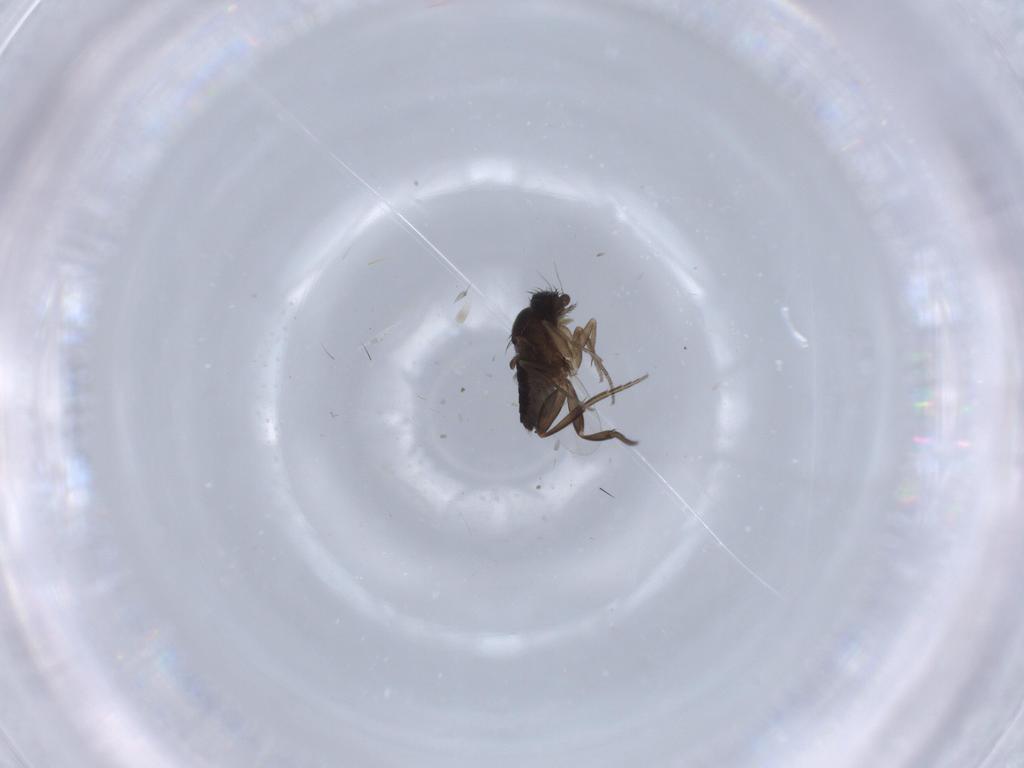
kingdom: Animalia
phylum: Arthropoda
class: Insecta
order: Diptera
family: Phoridae
